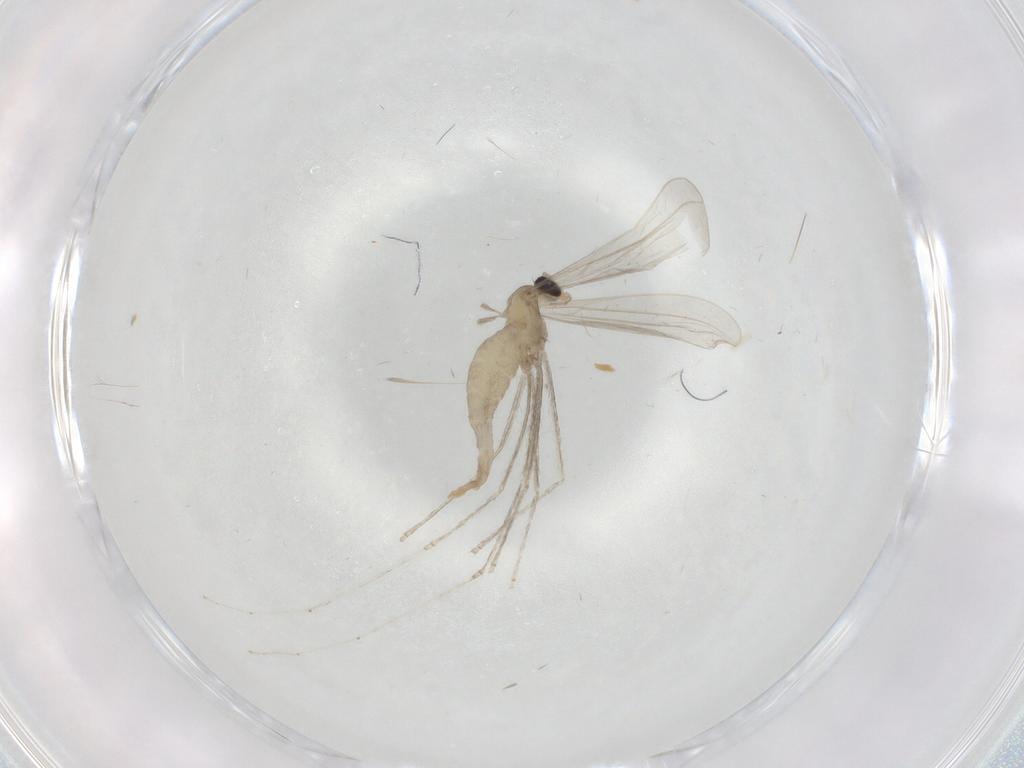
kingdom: Animalia
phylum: Arthropoda
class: Insecta
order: Diptera
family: Cecidomyiidae
